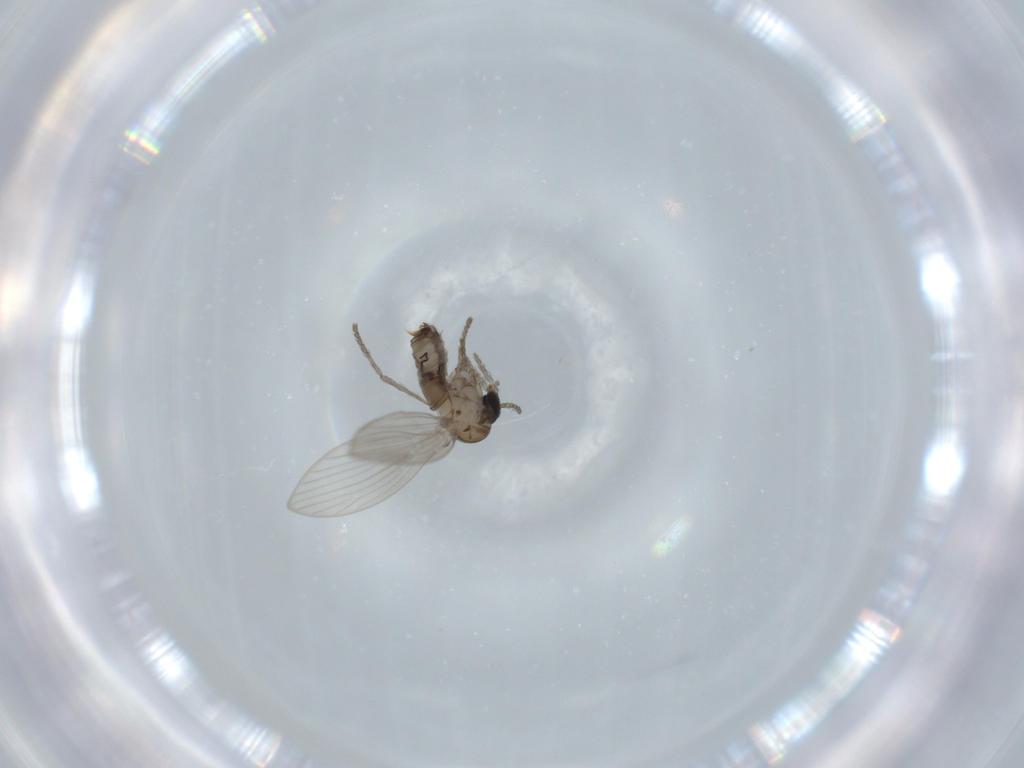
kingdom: Animalia
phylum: Arthropoda
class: Insecta
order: Diptera
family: Psychodidae
